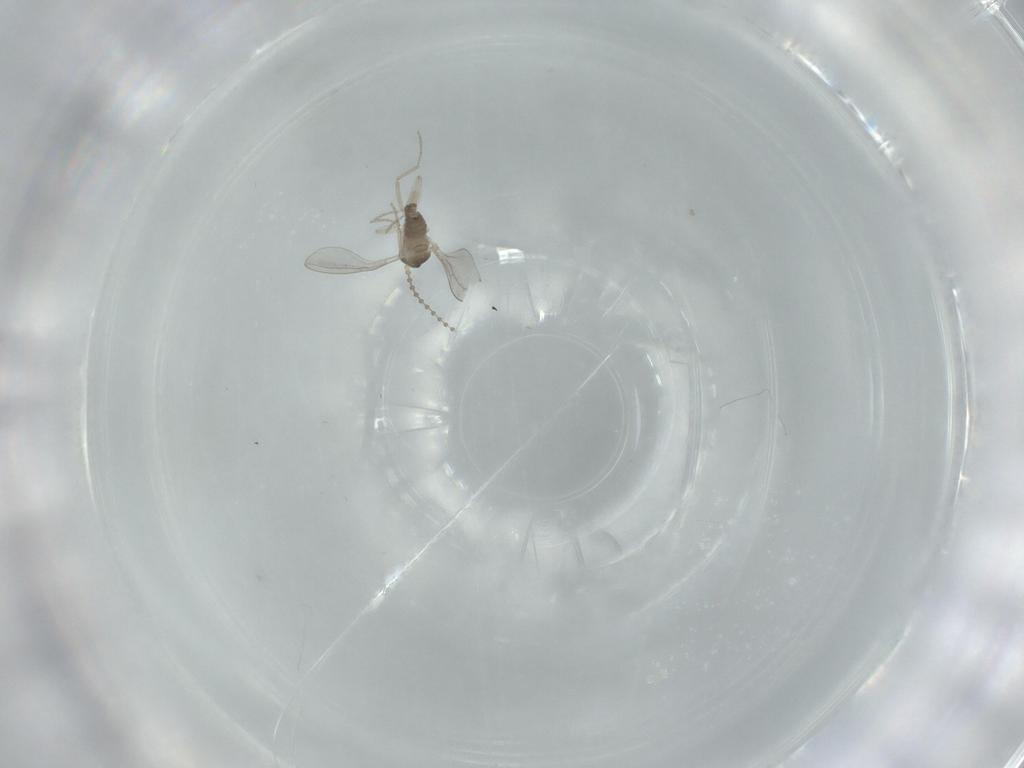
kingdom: Animalia
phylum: Arthropoda
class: Insecta
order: Diptera
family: Cecidomyiidae
